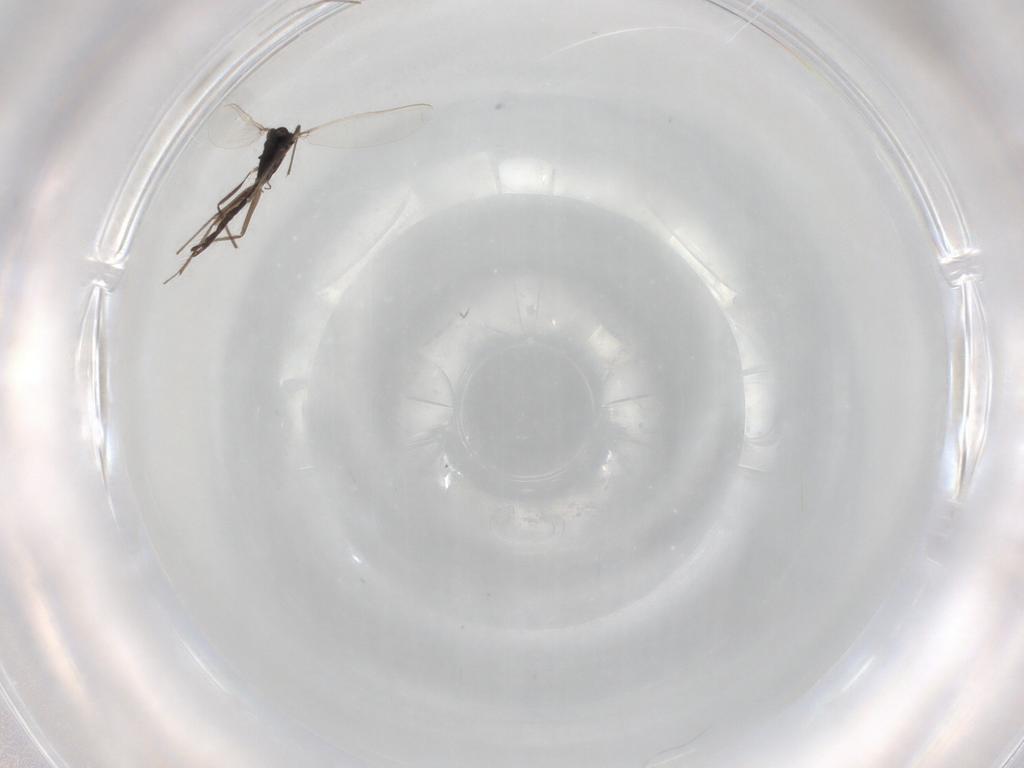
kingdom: Animalia
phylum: Arthropoda
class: Insecta
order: Diptera
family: Chironomidae
